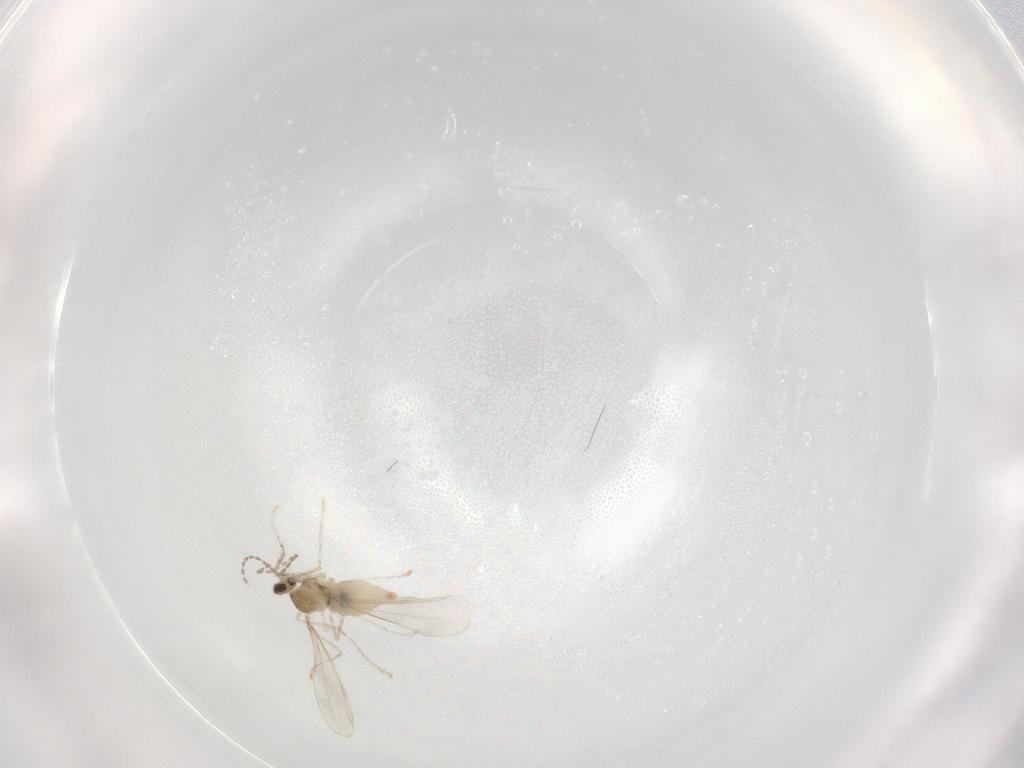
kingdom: Animalia
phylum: Arthropoda
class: Insecta
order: Diptera
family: Cecidomyiidae
